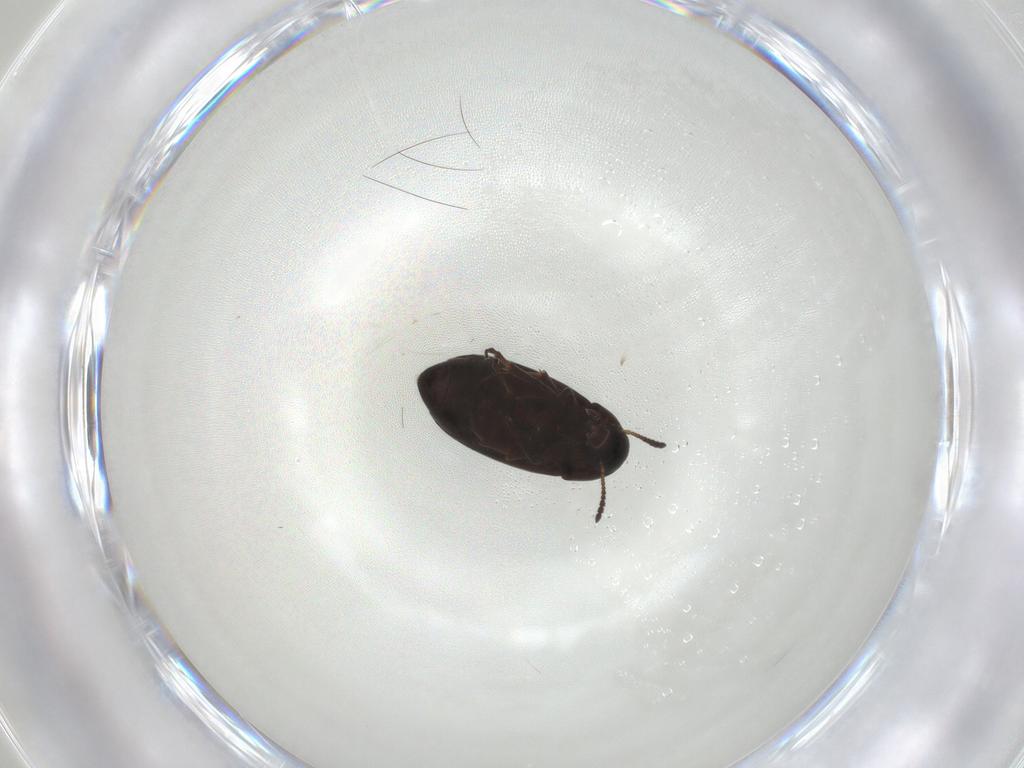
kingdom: Animalia
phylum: Arthropoda
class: Insecta
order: Coleoptera
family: Scraptiidae
